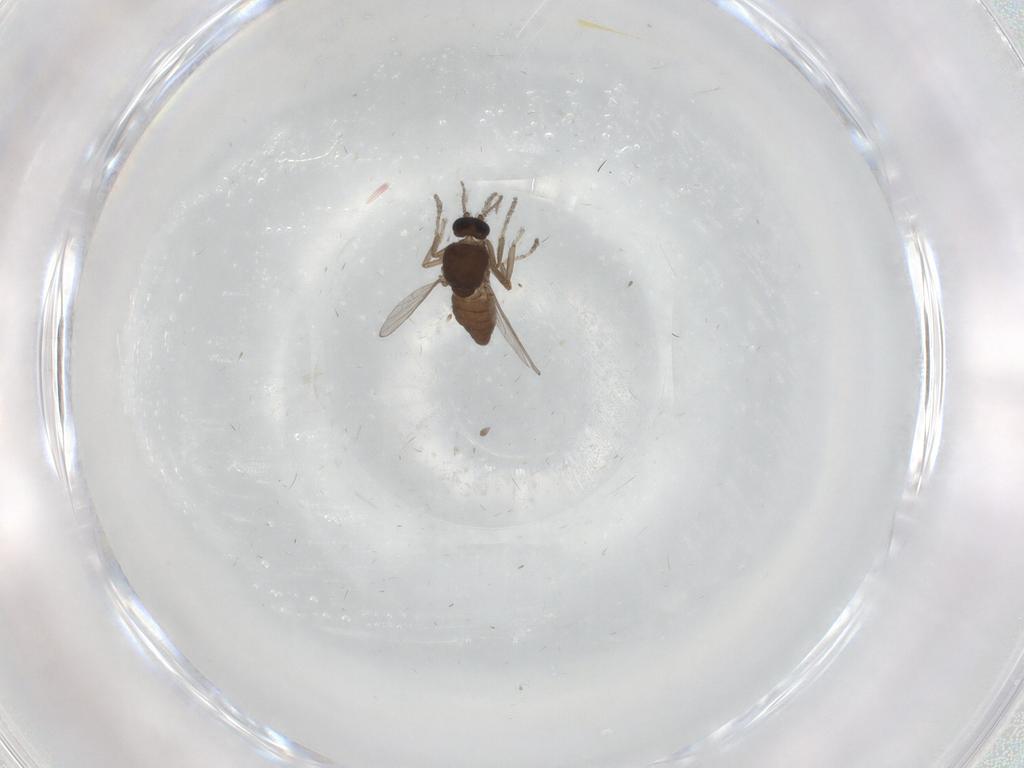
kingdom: Animalia
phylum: Arthropoda
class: Insecta
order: Diptera
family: Ceratopogonidae
